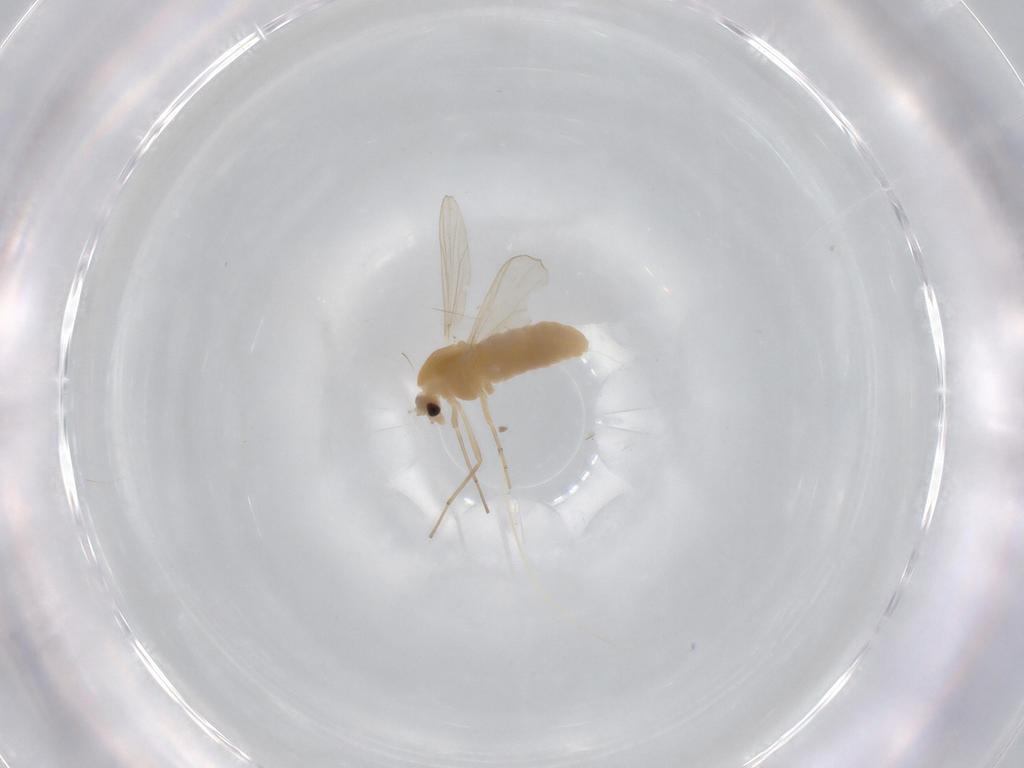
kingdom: Animalia
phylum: Arthropoda
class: Insecta
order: Diptera
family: Chironomidae
